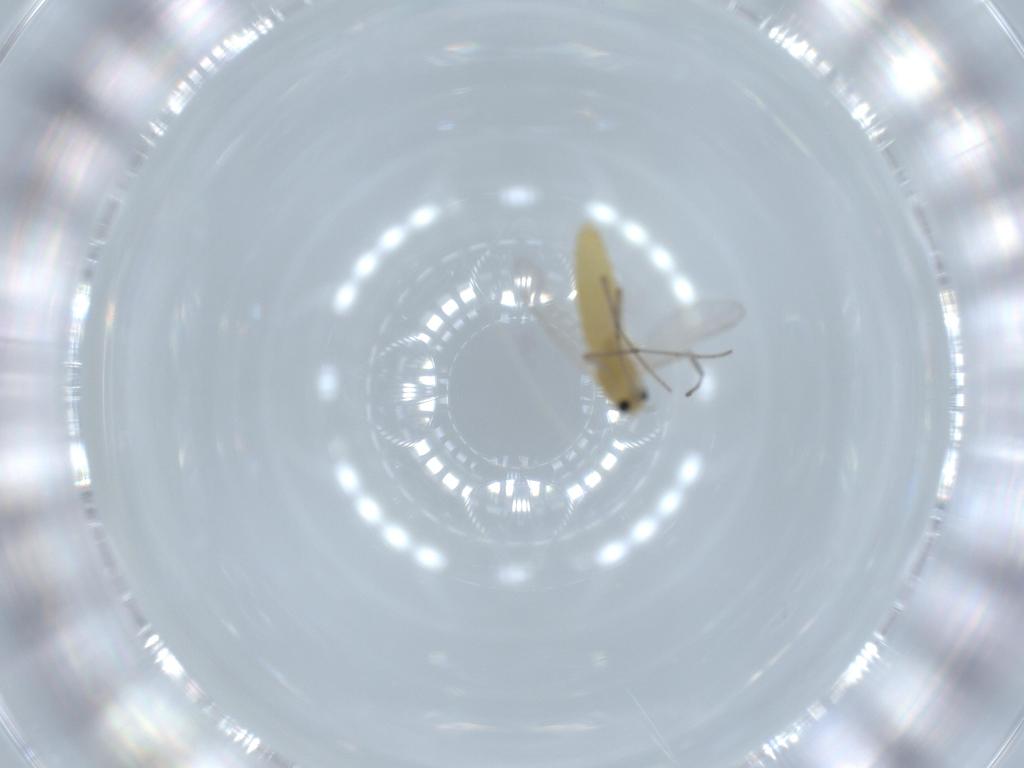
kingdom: Animalia
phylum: Arthropoda
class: Insecta
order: Diptera
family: Chironomidae
